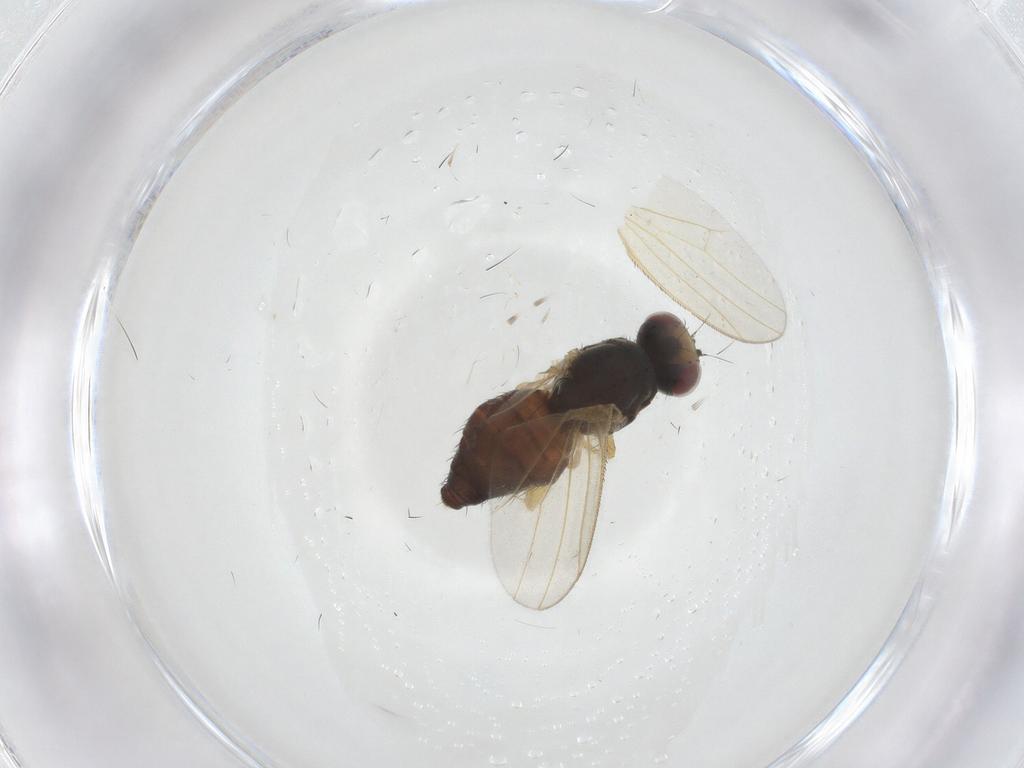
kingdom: Animalia
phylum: Arthropoda
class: Insecta
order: Diptera
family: Heleomyzidae
